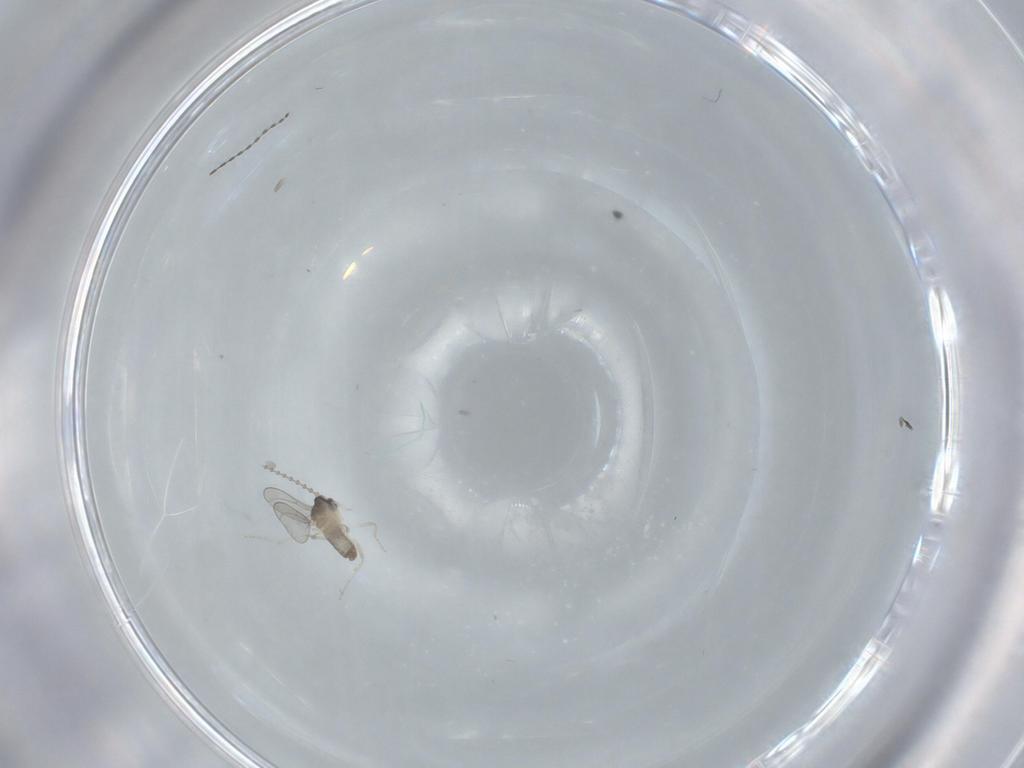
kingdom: Animalia
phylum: Arthropoda
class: Insecta
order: Diptera
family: Cecidomyiidae
